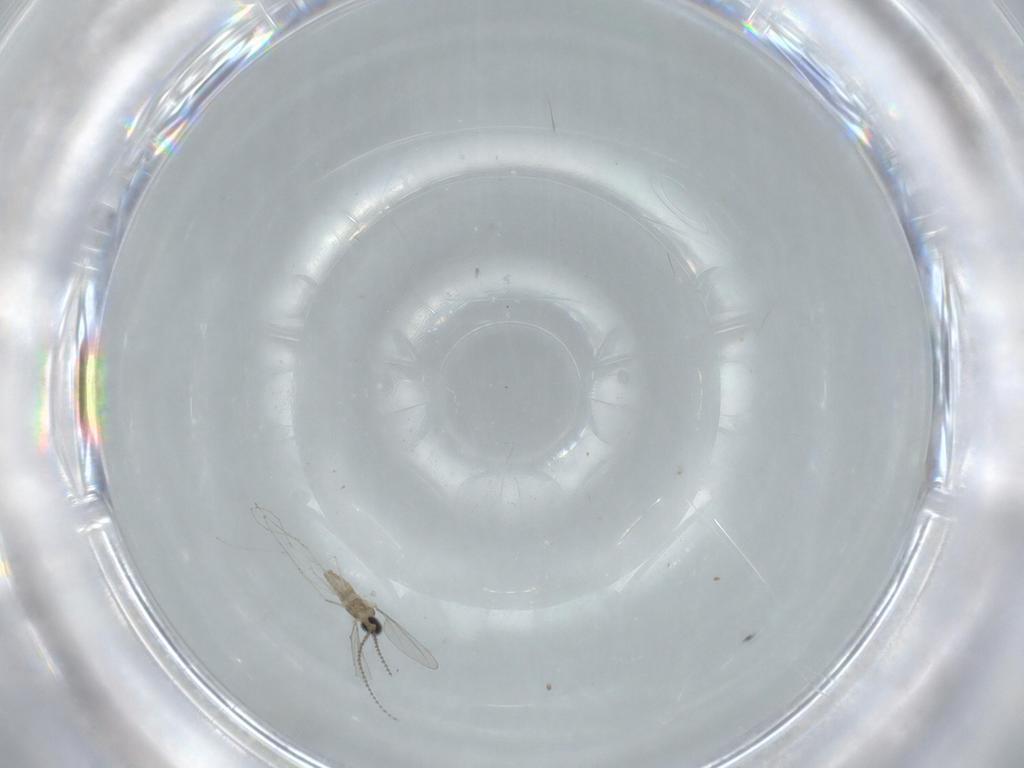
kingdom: Animalia
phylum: Arthropoda
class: Insecta
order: Diptera
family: Cecidomyiidae
